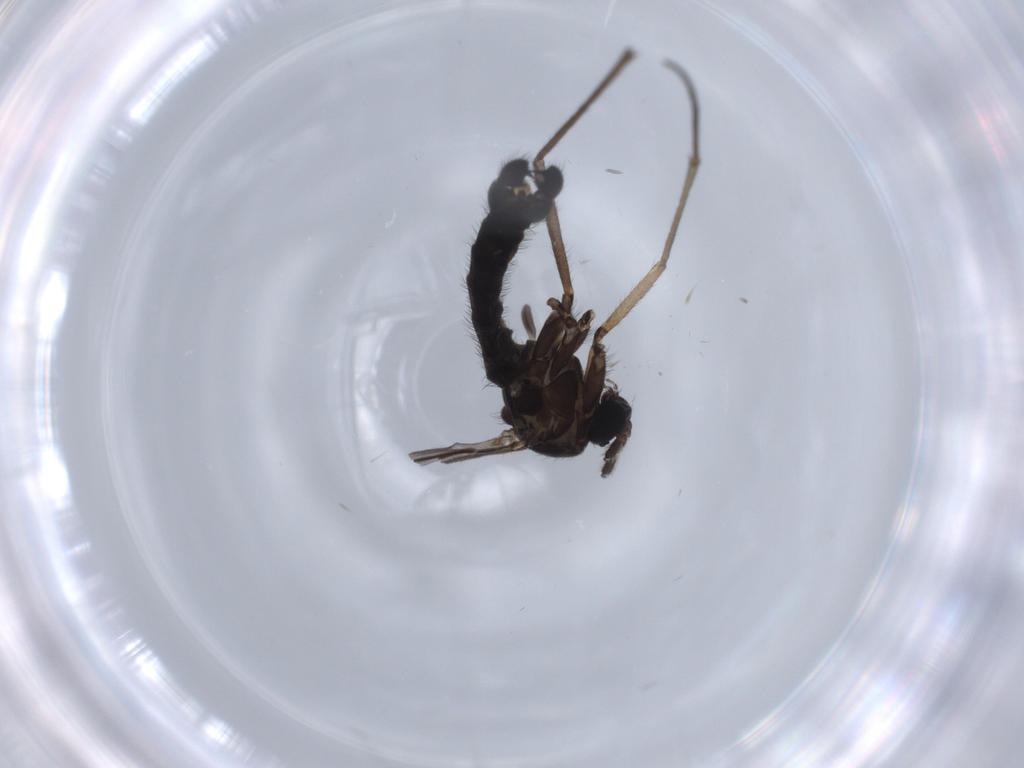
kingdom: Animalia
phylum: Arthropoda
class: Insecta
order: Diptera
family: Sciaridae
